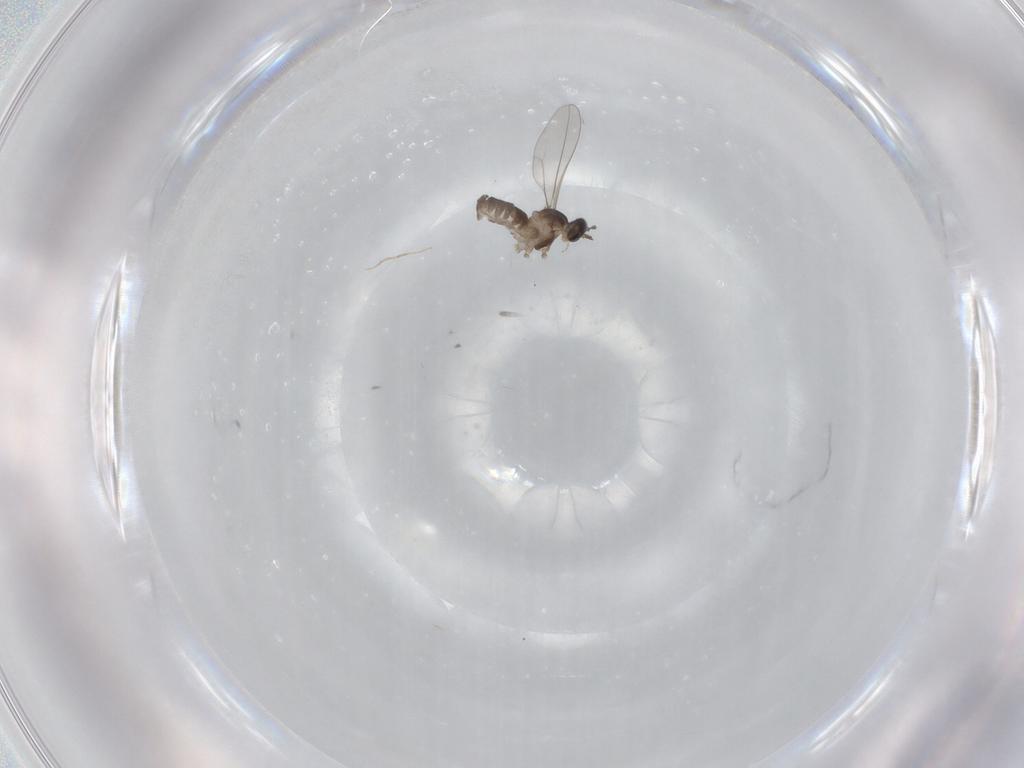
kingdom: Animalia
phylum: Arthropoda
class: Insecta
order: Diptera
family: Cecidomyiidae
